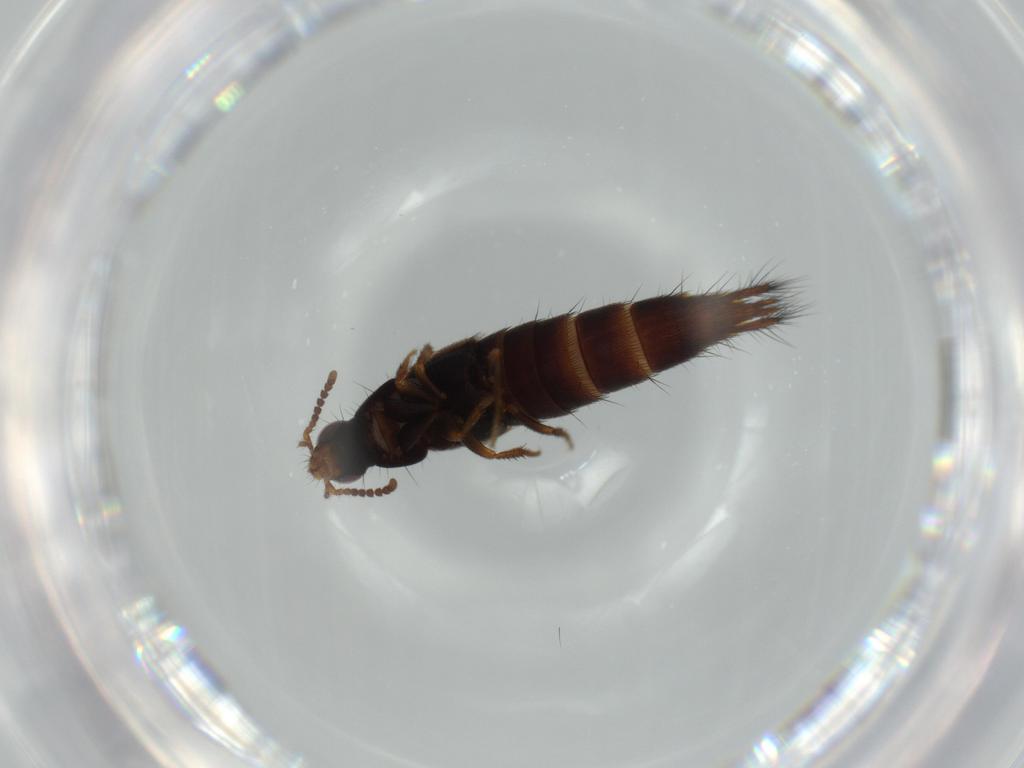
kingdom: Animalia
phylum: Arthropoda
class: Insecta
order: Coleoptera
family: Staphylinidae
